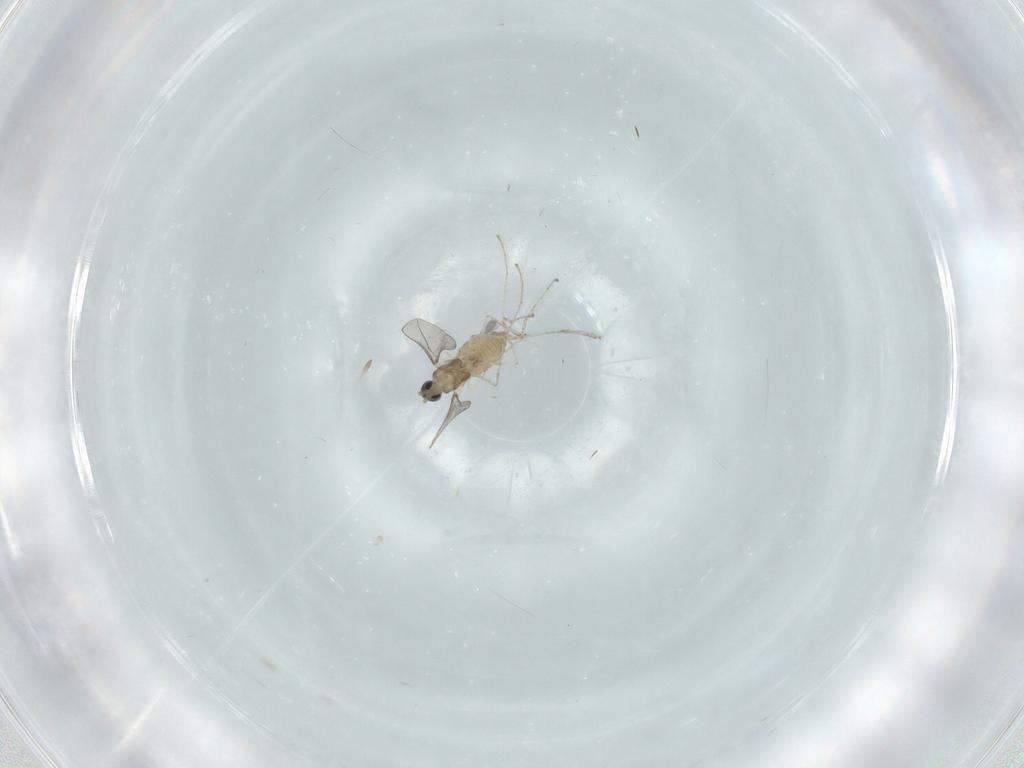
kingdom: Animalia
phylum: Arthropoda
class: Insecta
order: Diptera
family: Cecidomyiidae
